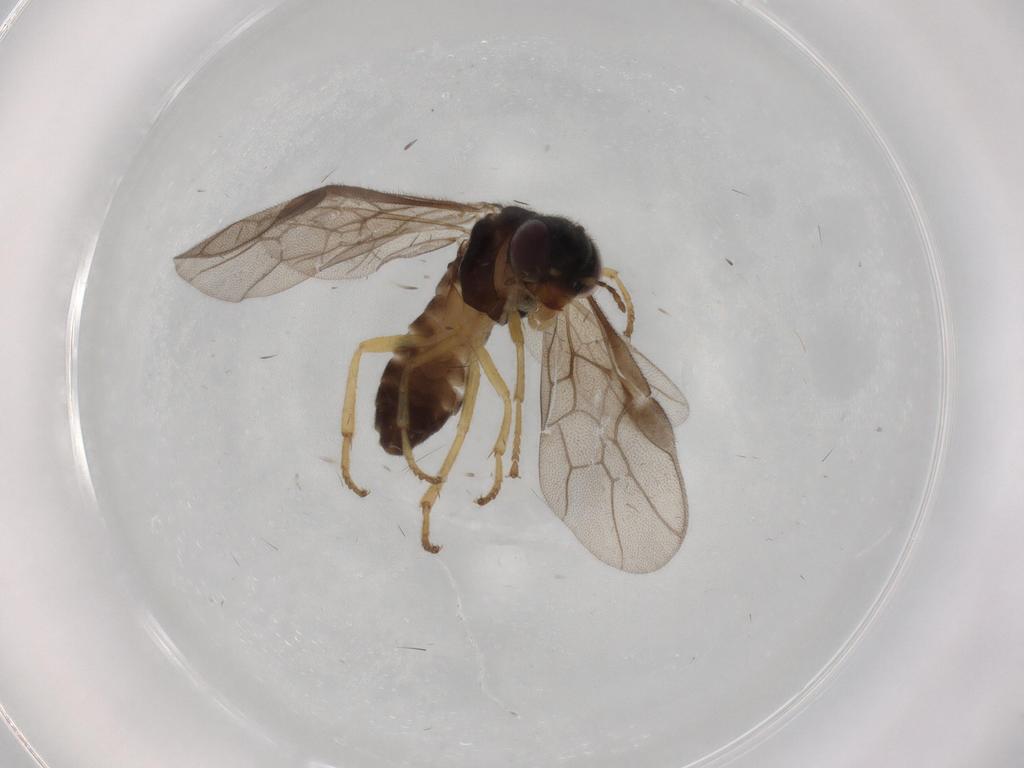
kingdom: Animalia
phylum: Arthropoda
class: Insecta
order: Hymenoptera
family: Pergidae
